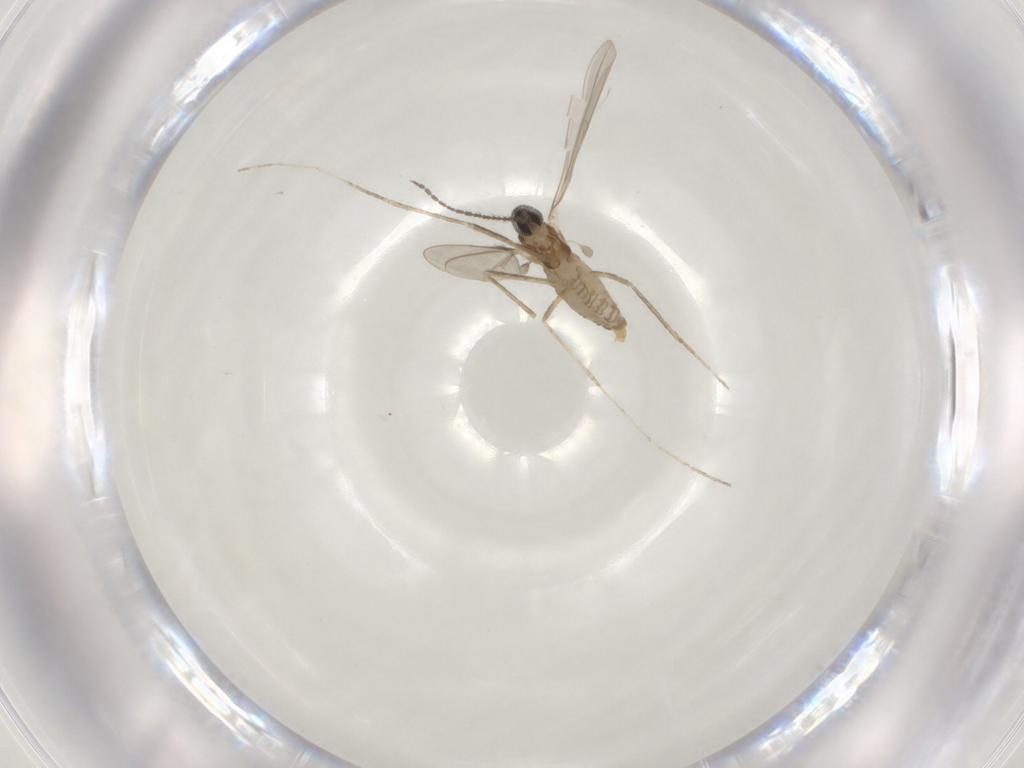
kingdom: Animalia
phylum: Arthropoda
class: Insecta
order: Diptera
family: Cecidomyiidae
